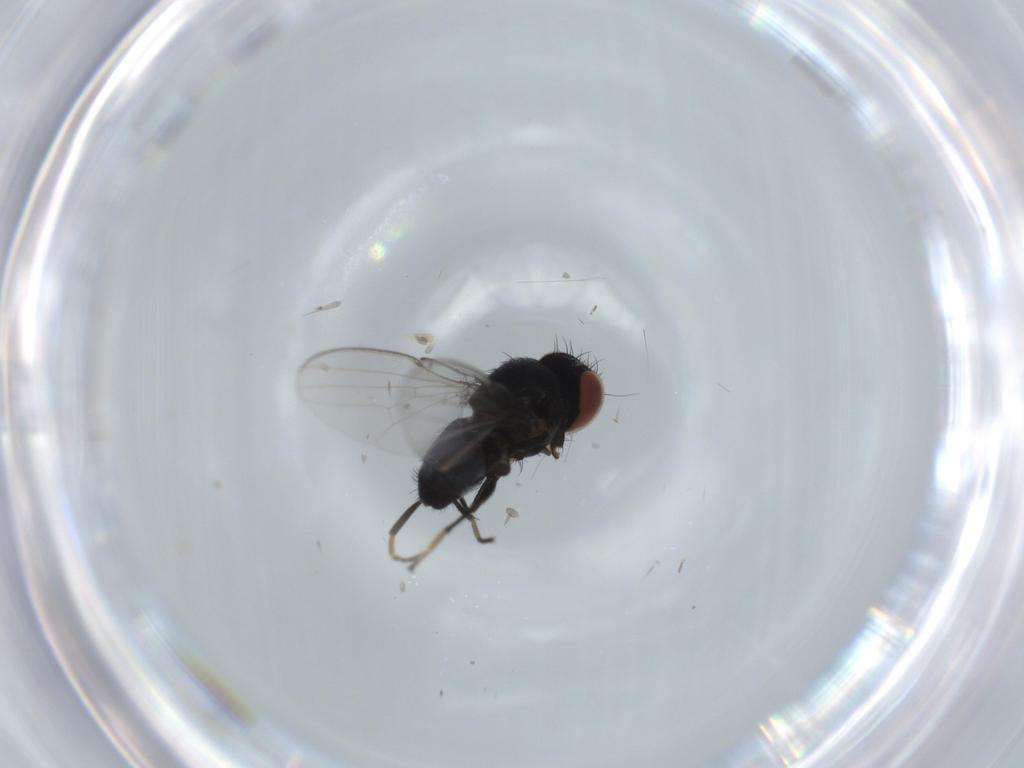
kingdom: Animalia
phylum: Arthropoda
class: Insecta
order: Diptera
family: Milichiidae
